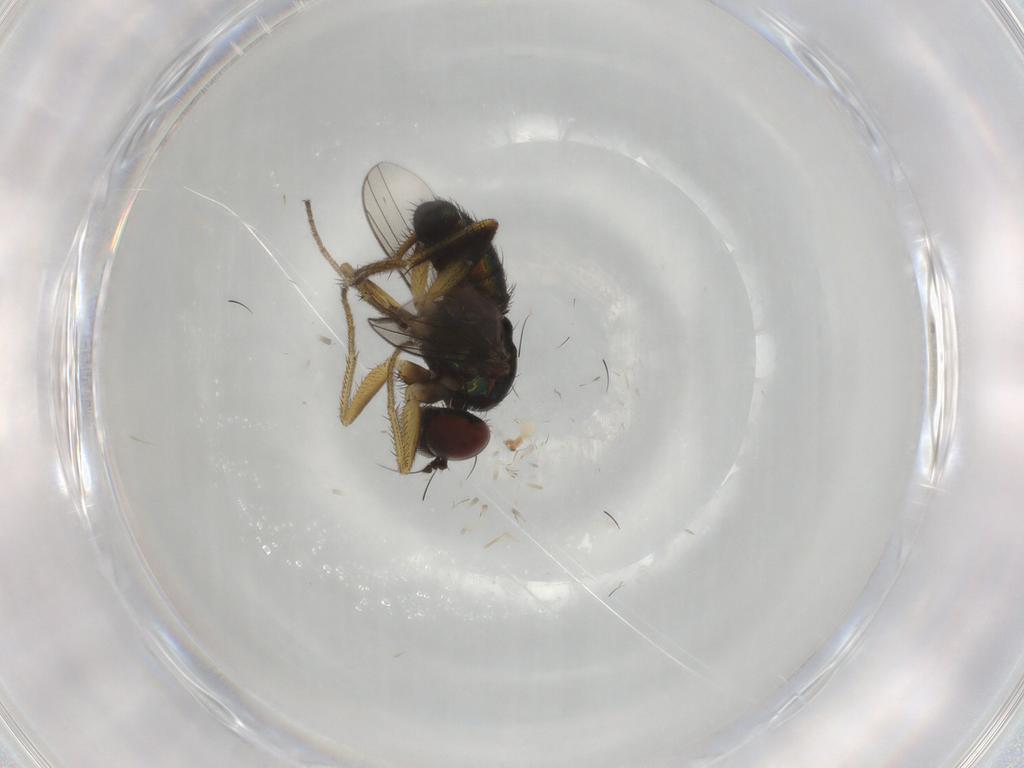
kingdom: Animalia
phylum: Arthropoda
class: Insecta
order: Diptera
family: Dolichopodidae
